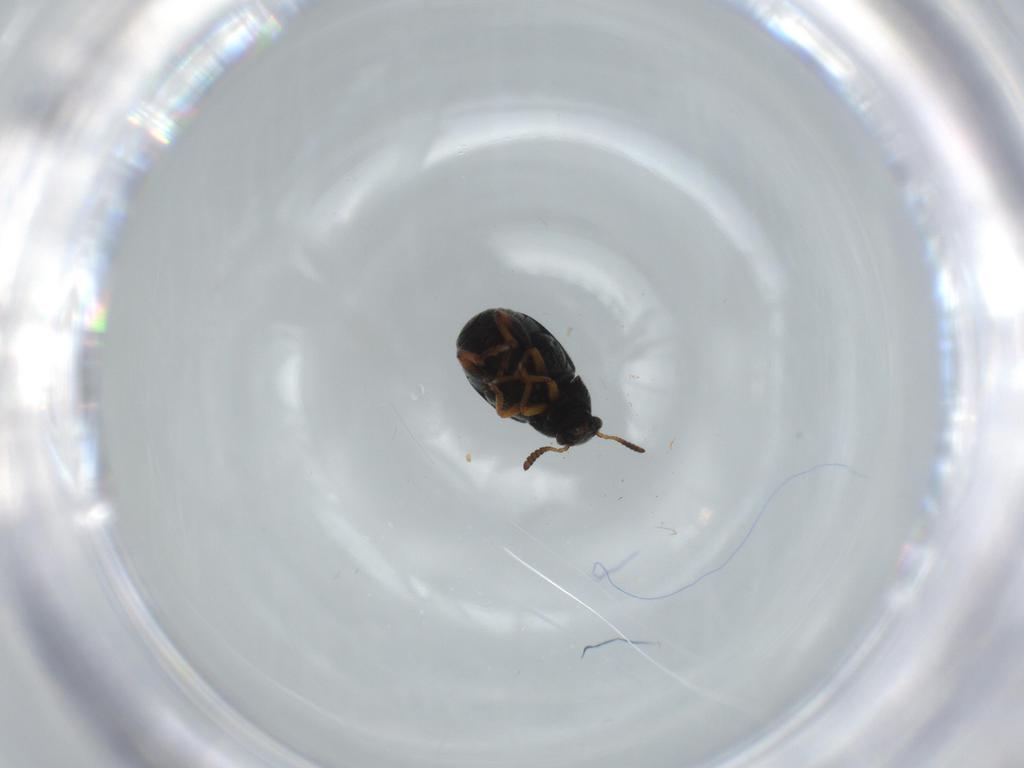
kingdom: Animalia
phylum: Arthropoda
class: Insecta
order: Coleoptera
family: Chrysomelidae
